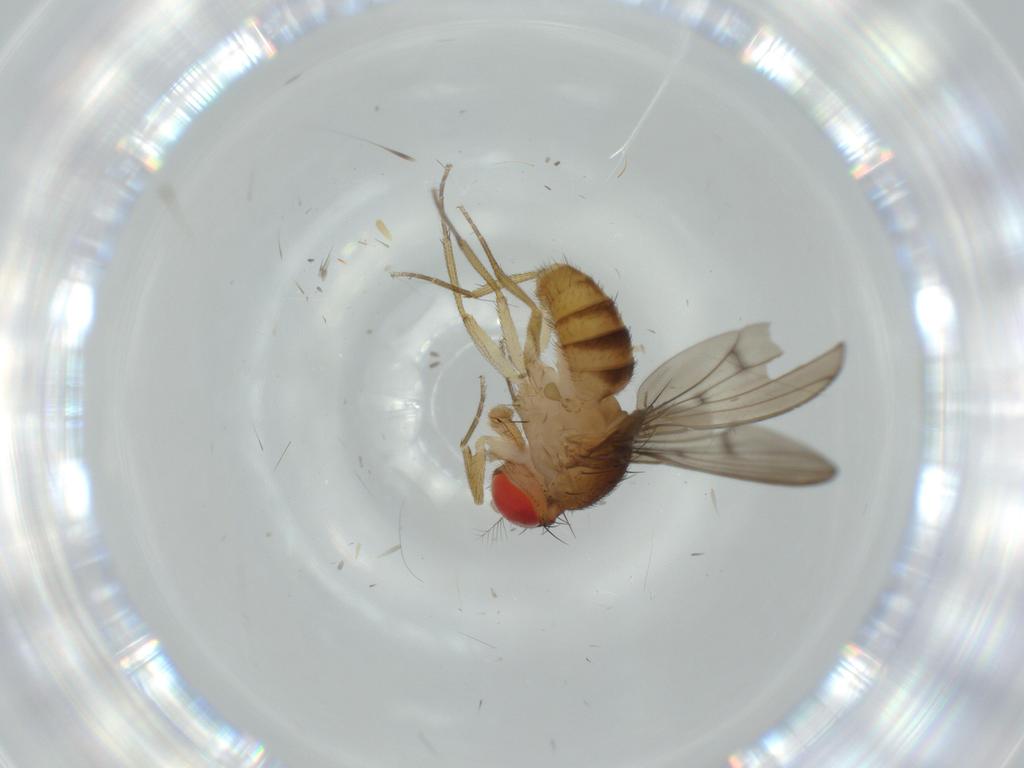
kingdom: Animalia
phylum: Arthropoda
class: Insecta
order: Diptera
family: Drosophilidae
